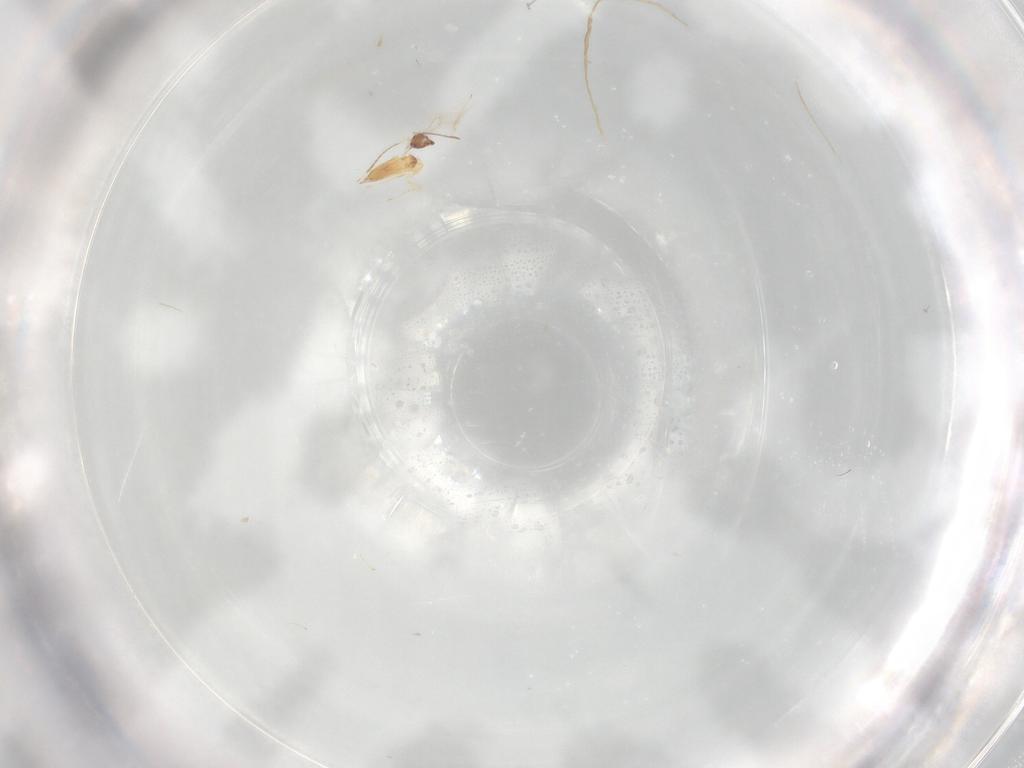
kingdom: Animalia
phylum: Arthropoda
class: Insecta
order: Hymenoptera
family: Mymaridae
